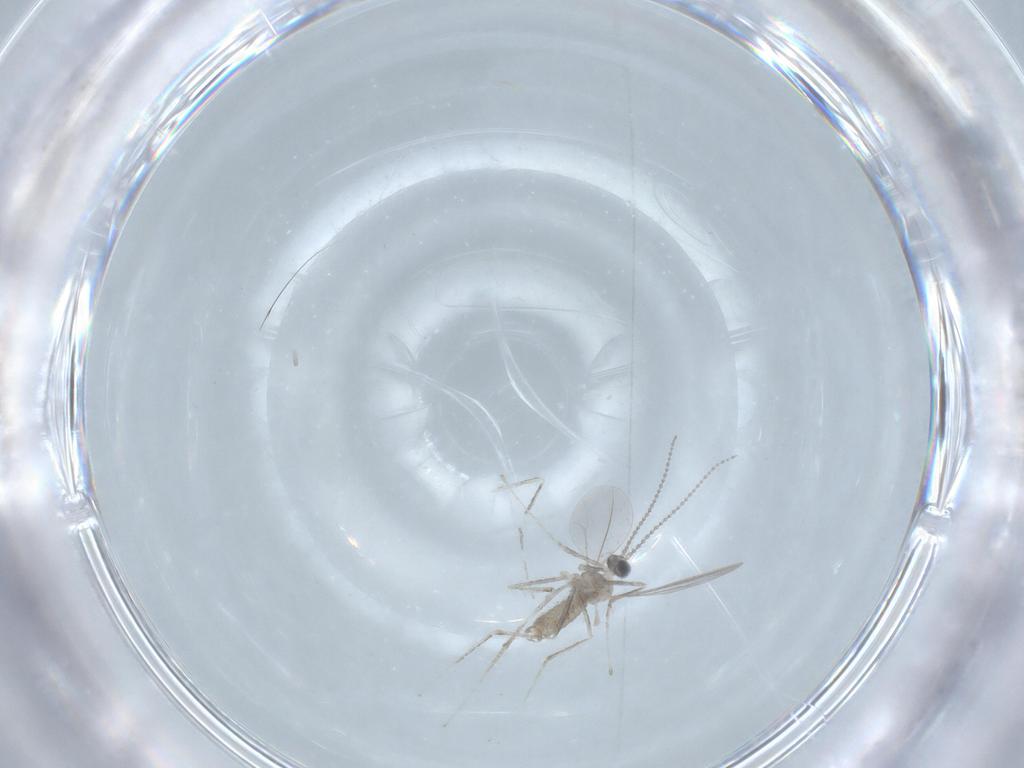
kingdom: Animalia
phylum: Arthropoda
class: Insecta
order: Diptera
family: Cecidomyiidae
